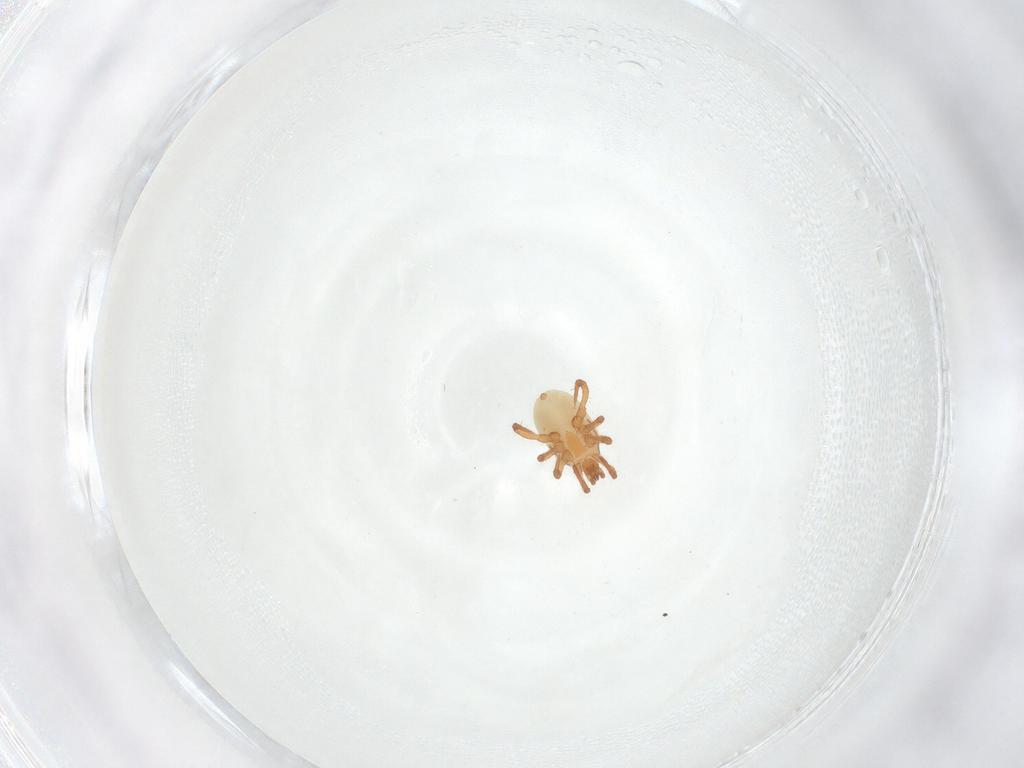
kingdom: Animalia
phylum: Arthropoda
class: Arachnida
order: Mesostigmata
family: Parasitidae
